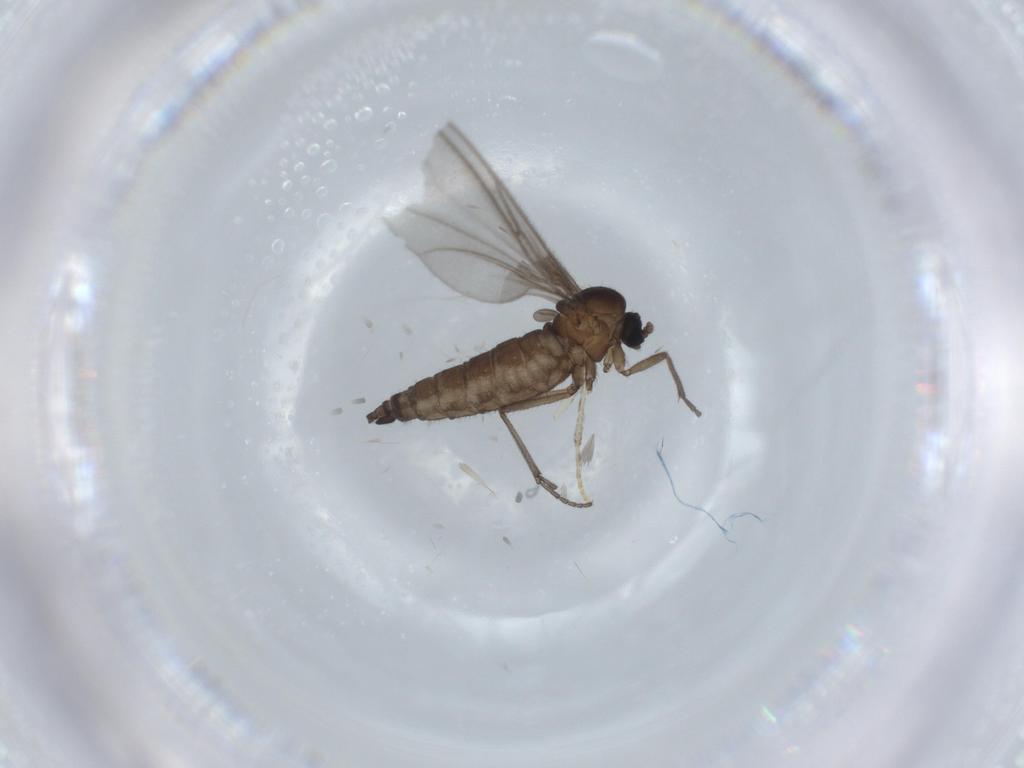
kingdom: Animalia
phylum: Arthropoda
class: Insecta
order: Diptera
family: Sciaridae
